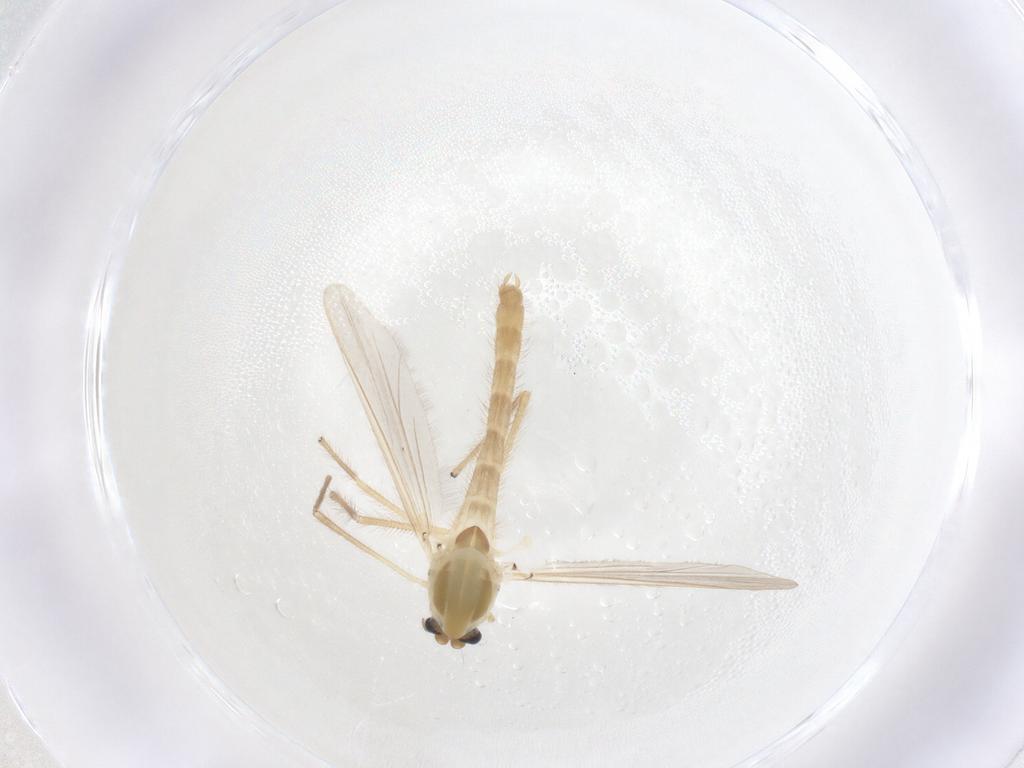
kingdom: Animalia
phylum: Arthropoda
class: Insecta
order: Diptera
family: Chironomidae
